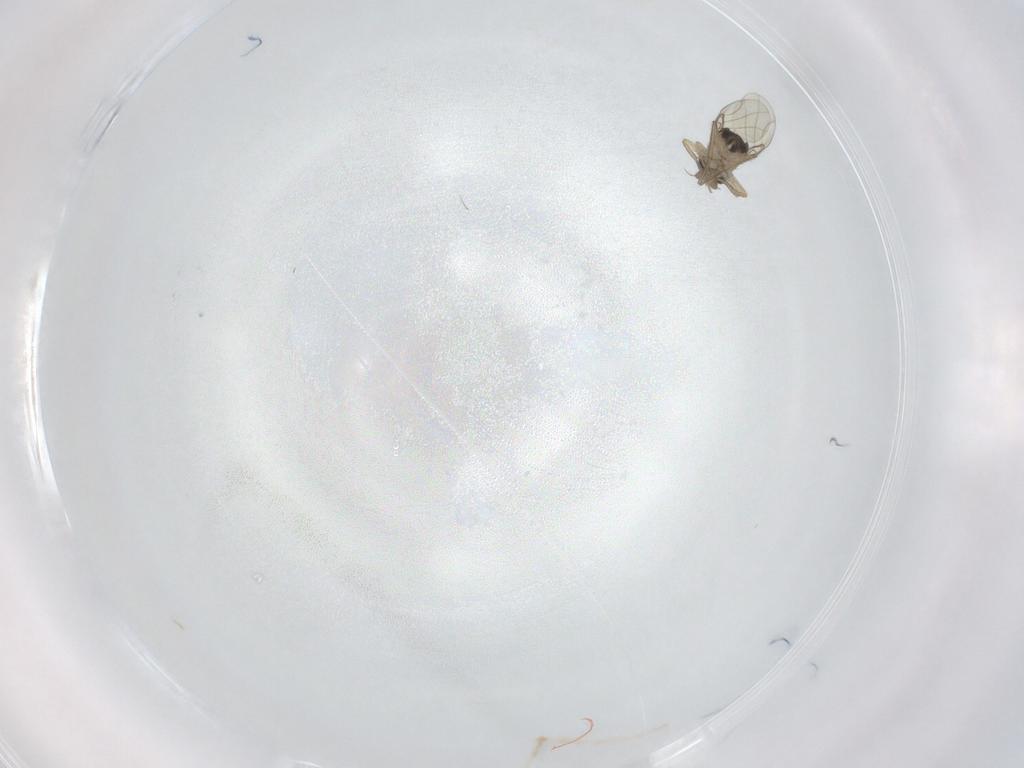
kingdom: Animalia
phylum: Arthropoda
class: Insecta
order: Diptera
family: Phoridae
